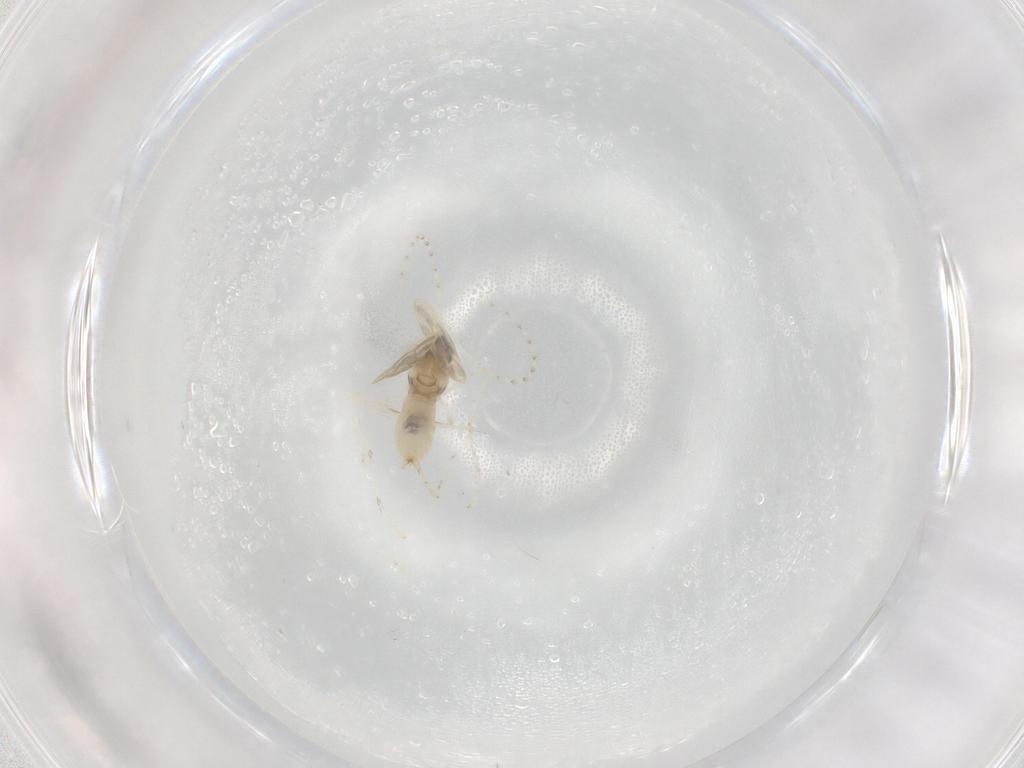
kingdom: Animalia
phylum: Arthropoda
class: Insecta
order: Diptera
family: Cecidomyiidae
